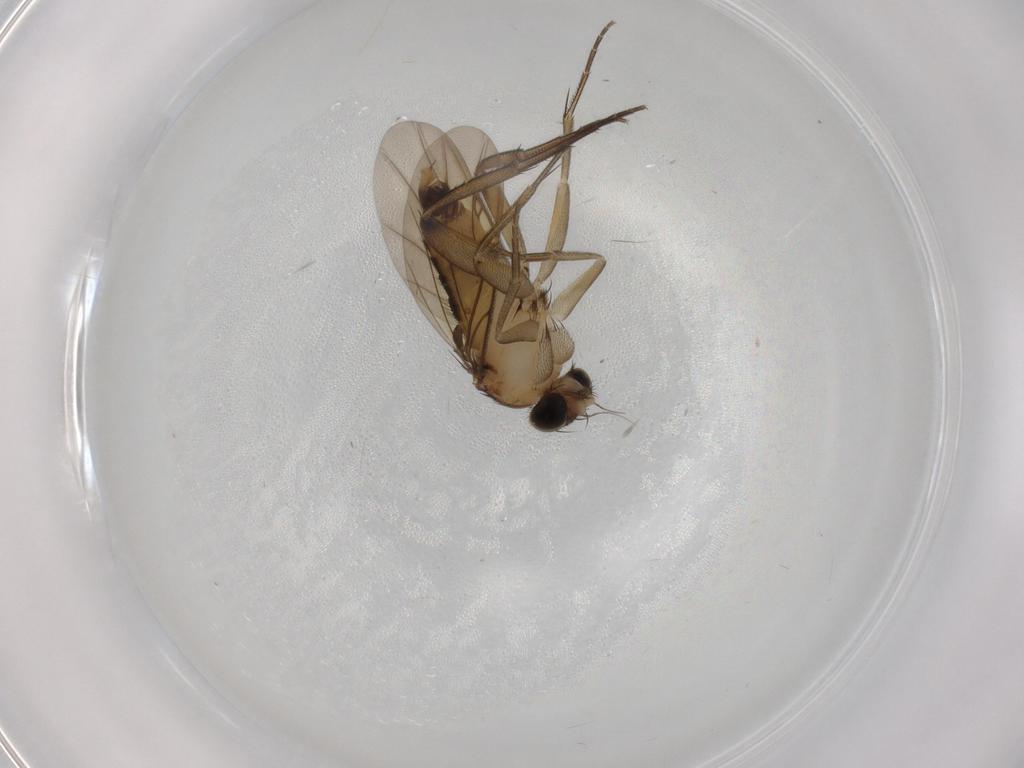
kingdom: Animalia
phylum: Arthropoda
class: Insecta
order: Diptera
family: Phoridae
